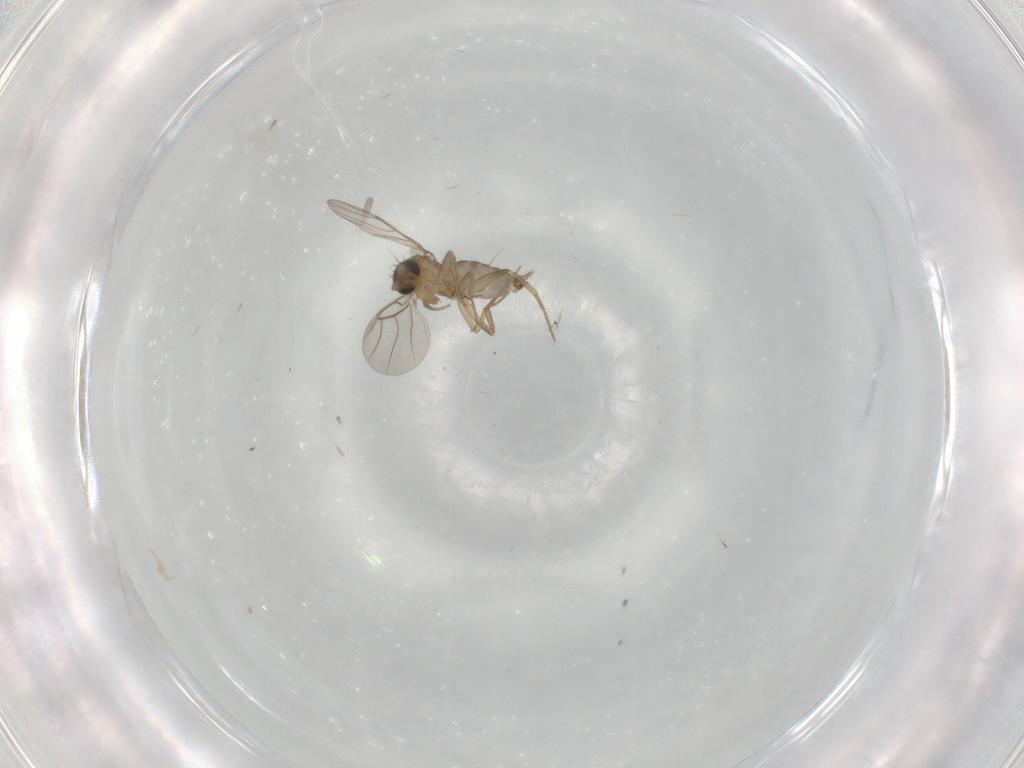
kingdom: Animalia
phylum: Arthropoda
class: Insecta
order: Diptera
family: Phoridae
